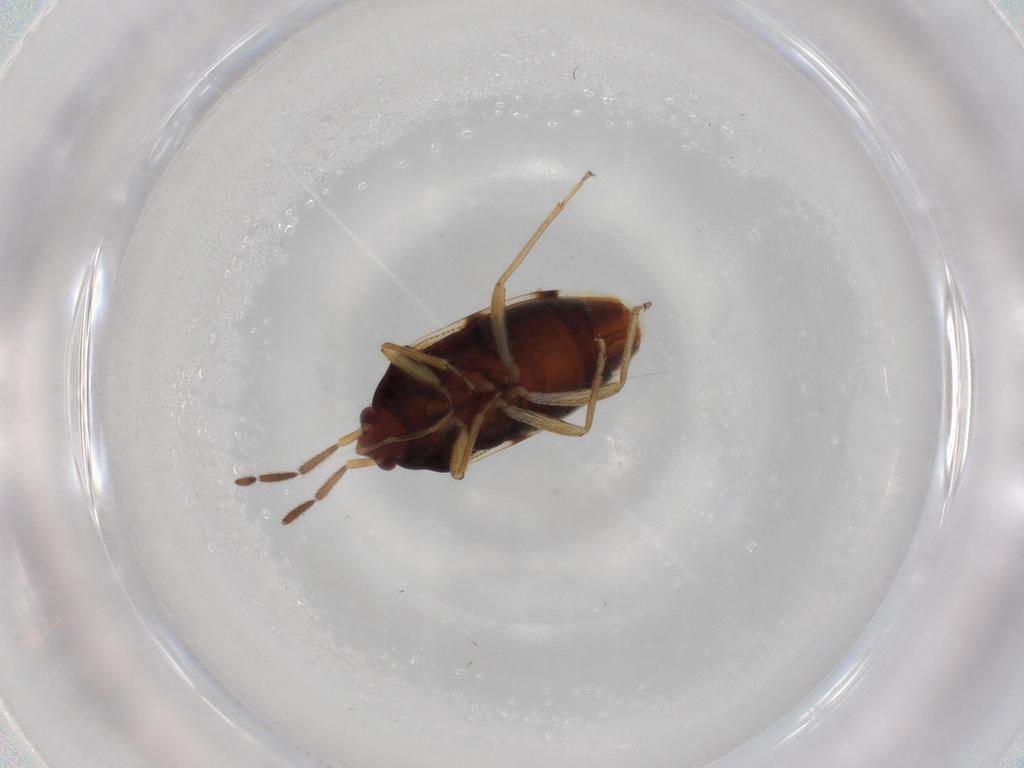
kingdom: Animalia
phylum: Arthropoda
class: Insecta
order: Hemiptera
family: Rhyparochromidae
